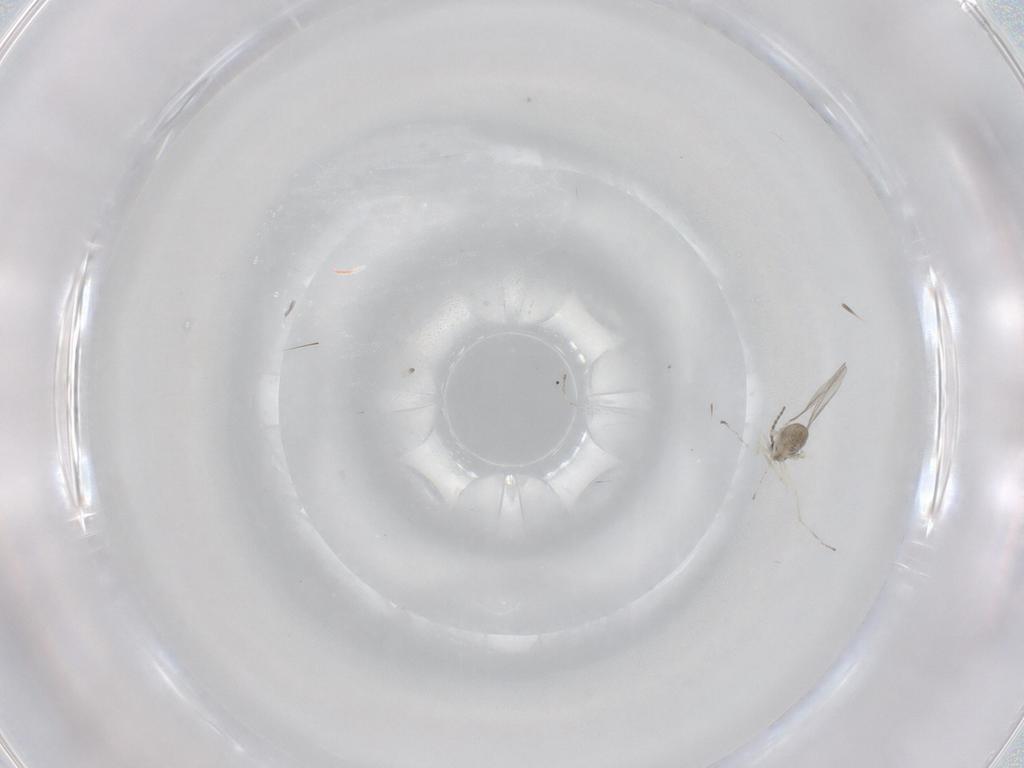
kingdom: Animalia
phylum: Arthropoda
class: Insecta
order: Diptera
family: Cecidomyiidae
